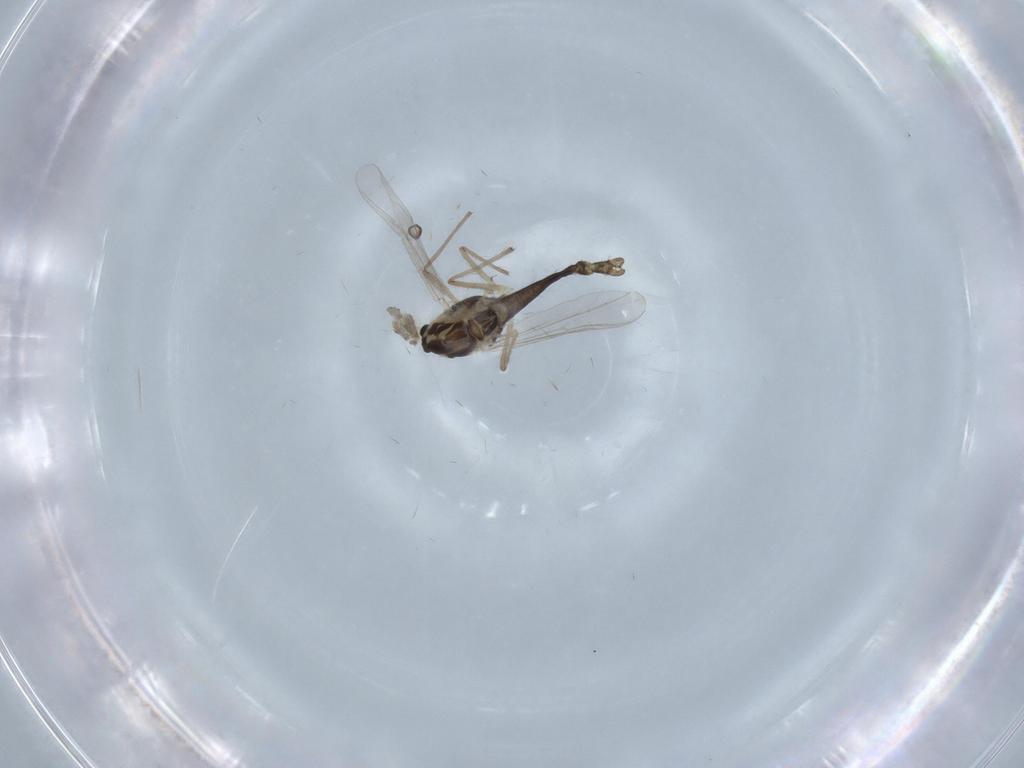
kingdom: Animalia
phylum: Arthropoda
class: Insecta
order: Diptera
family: Chironomidae
